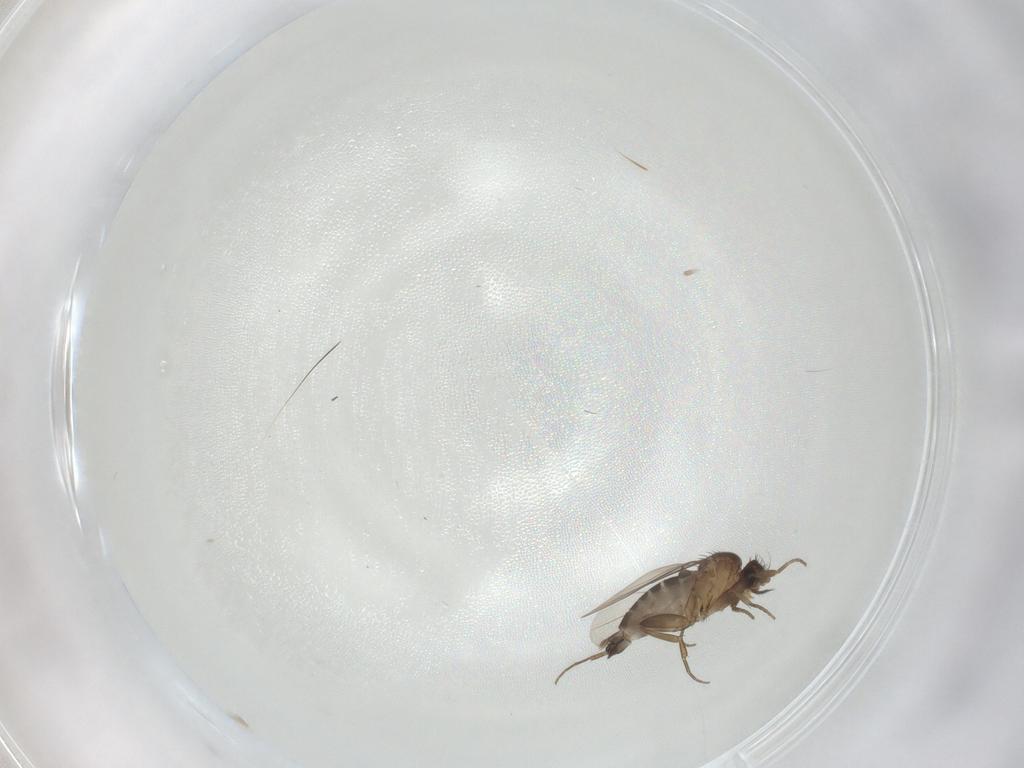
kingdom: Animalia
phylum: Arthropoda
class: Insecta
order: Diptera
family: Phoridae
